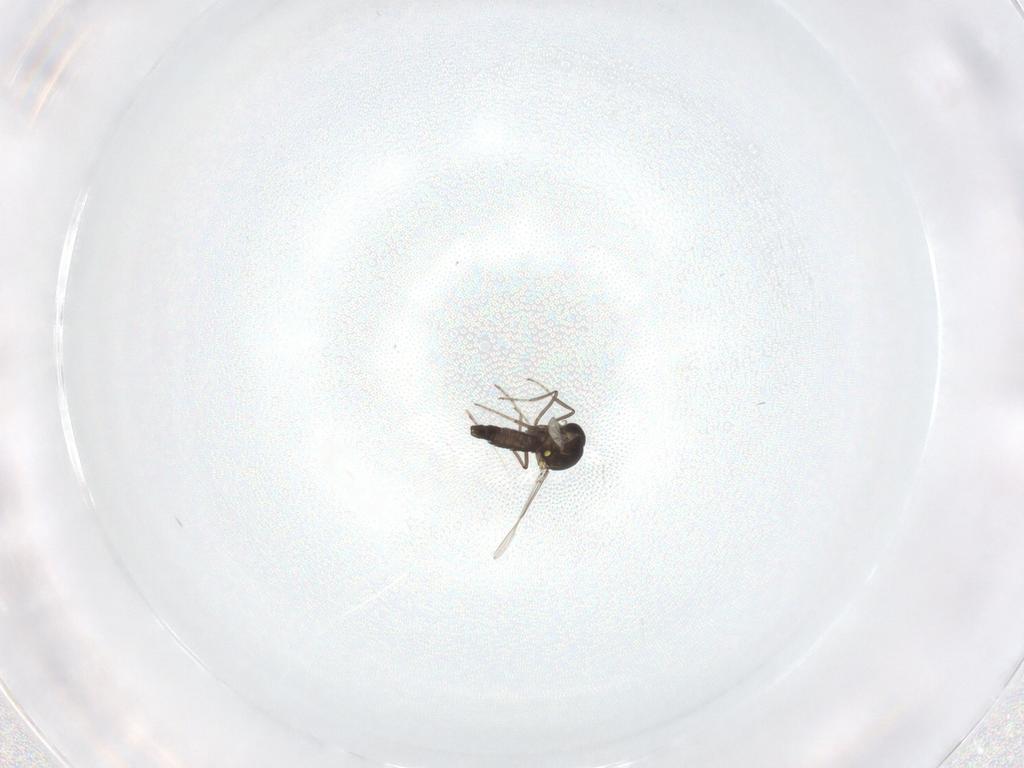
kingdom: Animalia
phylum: Arthropoda
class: Insecta
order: Diptera
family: Ceratopogonidae
